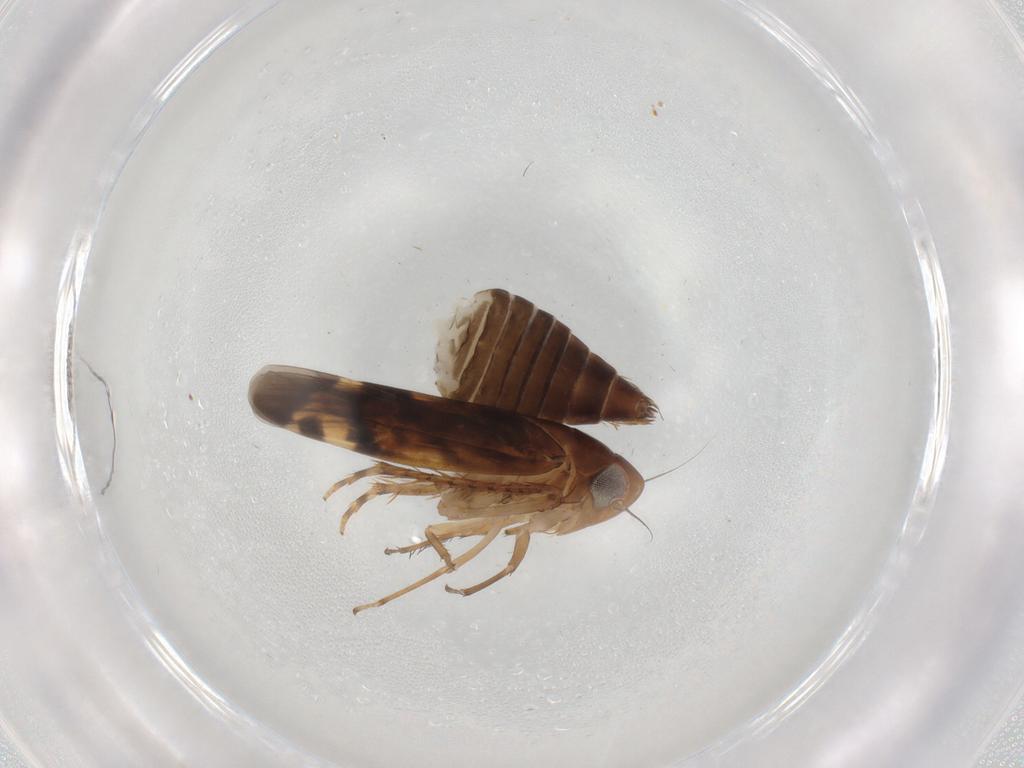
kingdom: Animalia
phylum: Arthropoda
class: Insecta
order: Hemiptera
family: Cicadellidae
